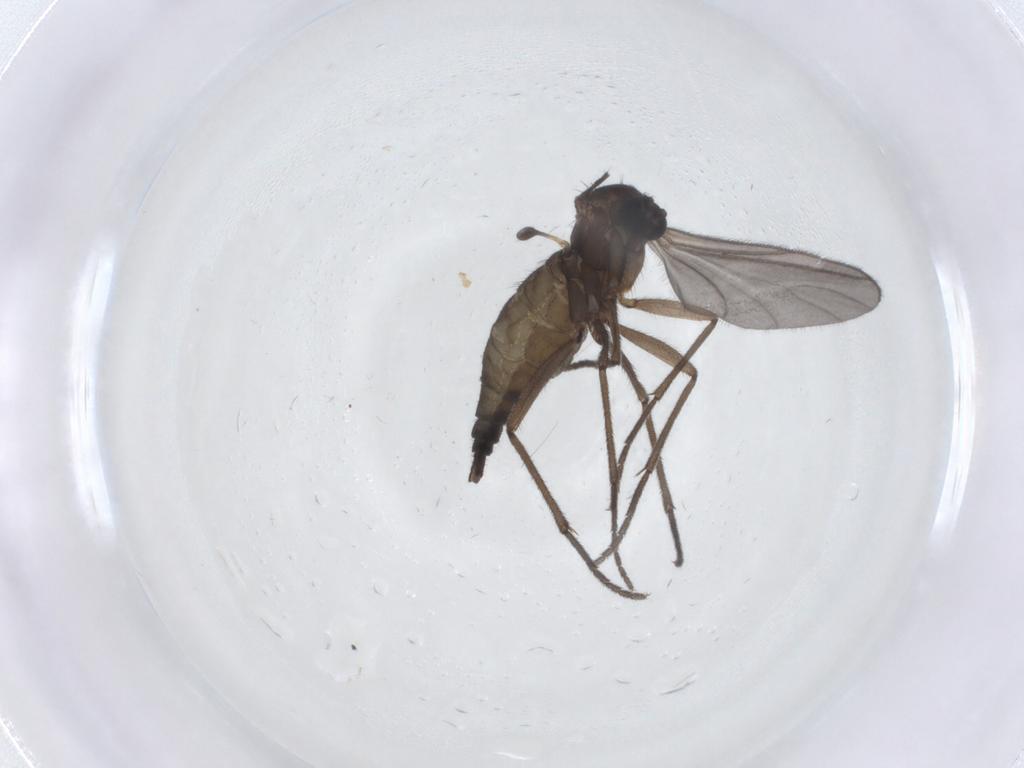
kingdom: Animalia
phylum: Arthropoda
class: Insecta
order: Diptera
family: Sciaridae
